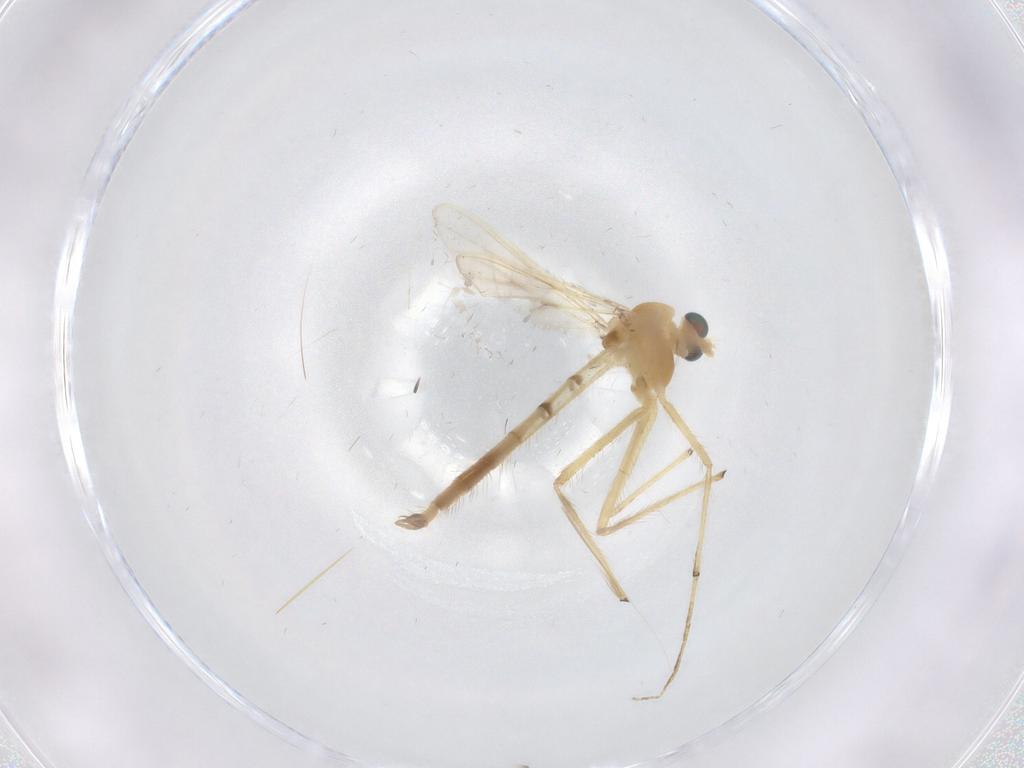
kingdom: Animalia
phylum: Arthropoda
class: Insecta
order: Diptera
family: Chironomidae
